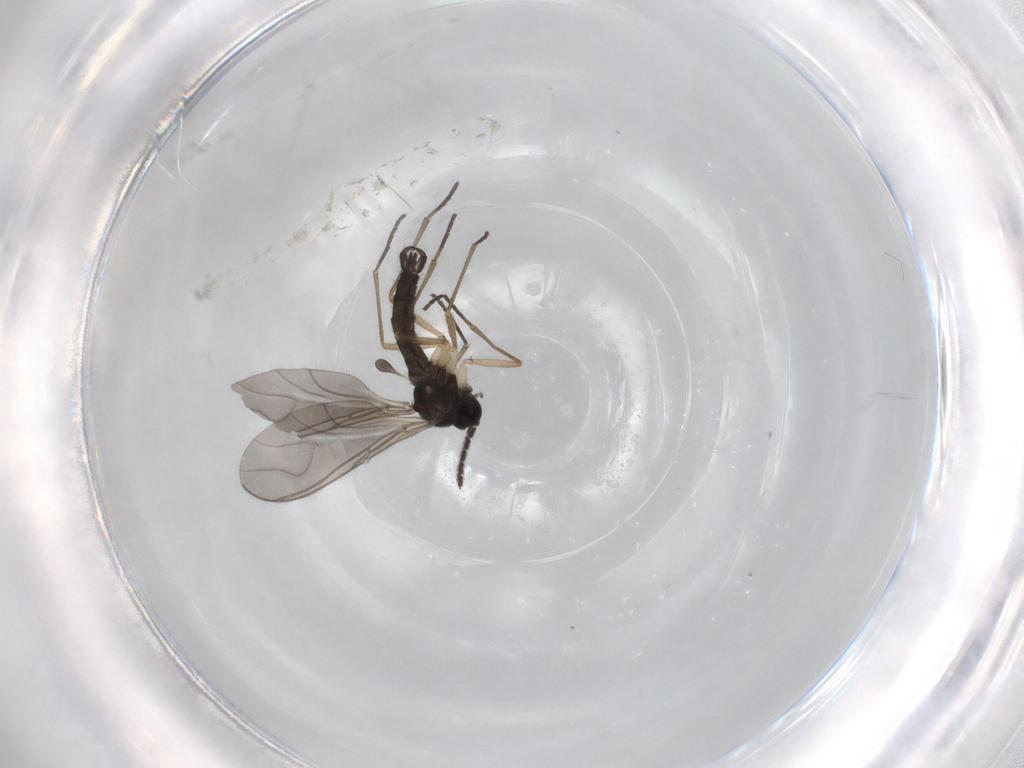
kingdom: Animalia
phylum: Arthropoda
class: Insecta
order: Diptera
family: Sciaridae
